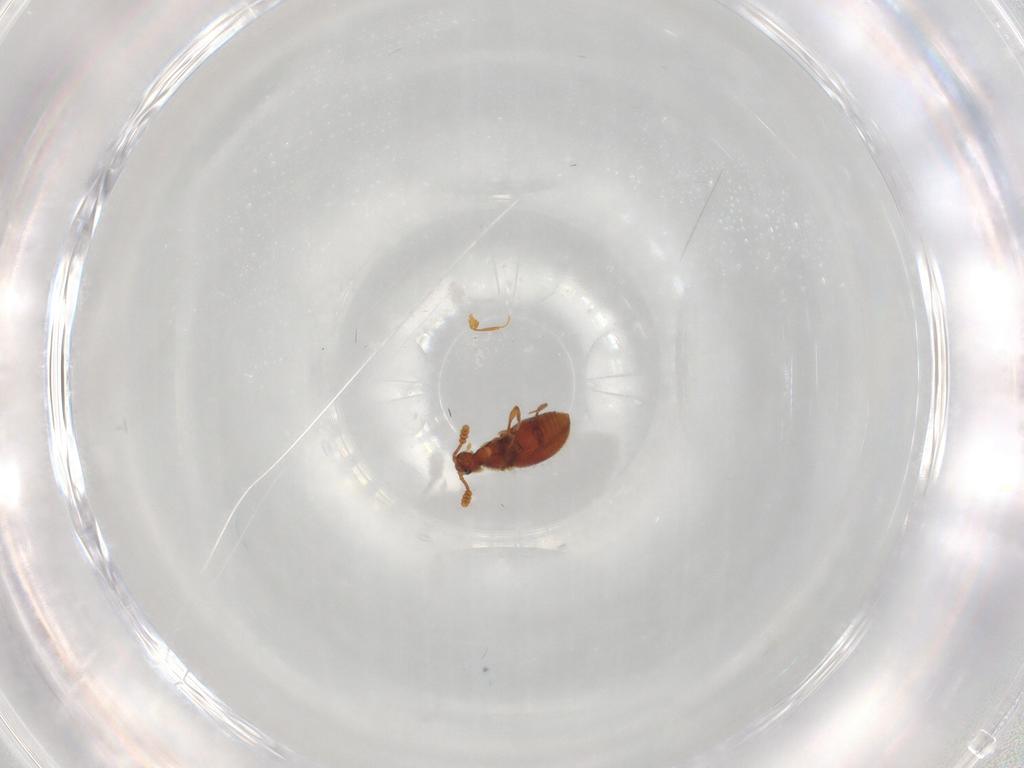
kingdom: Animalia
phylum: Arthropoda
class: Insecta
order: Coleoptera
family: Staphylinidae
